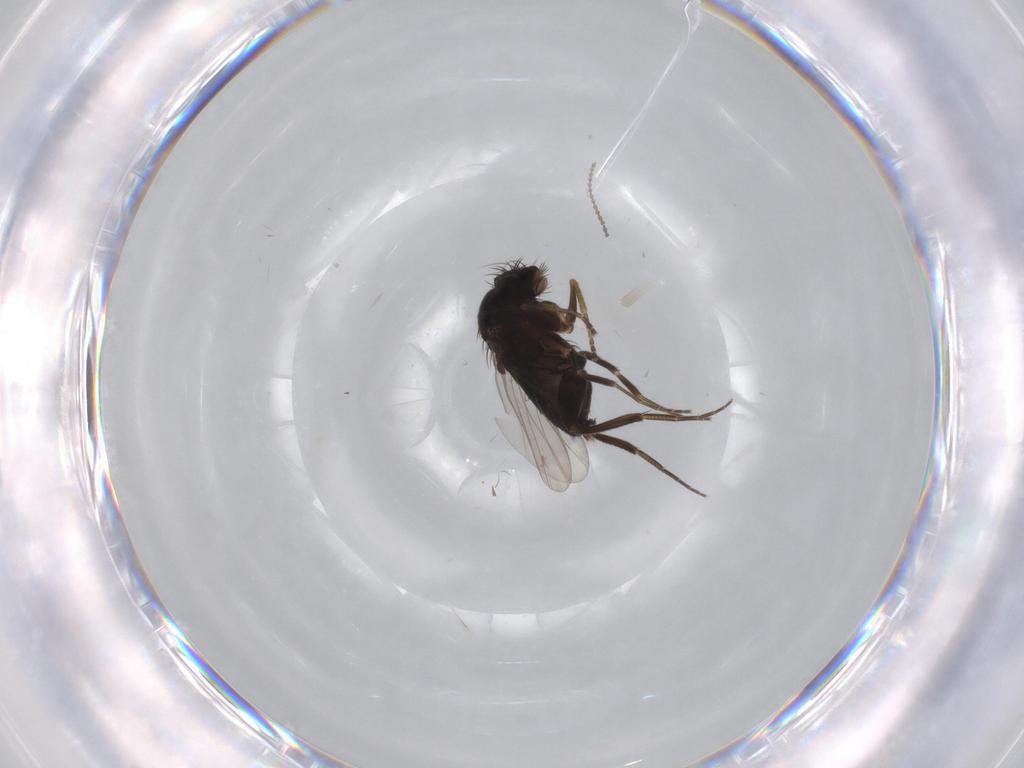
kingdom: Animalia
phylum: Arthropoda
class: Insecta
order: Diptera
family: Phoridae
